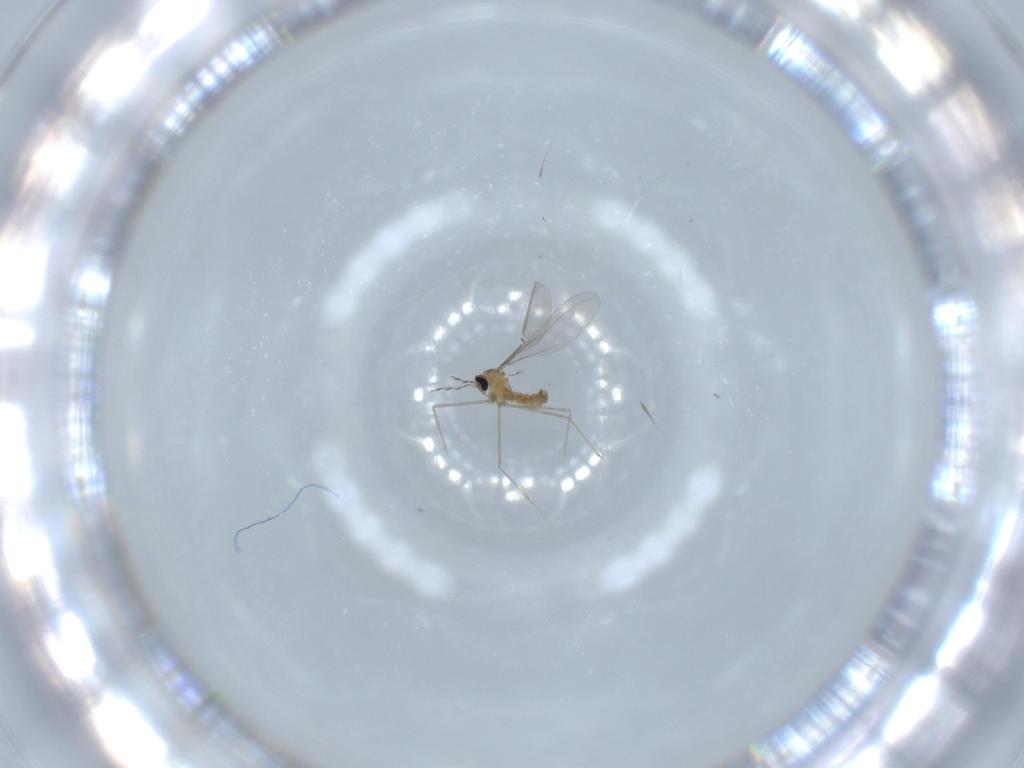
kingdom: Animalia
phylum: Arthropoda
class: Insecta
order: Diptera
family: Cecidomyiidae
